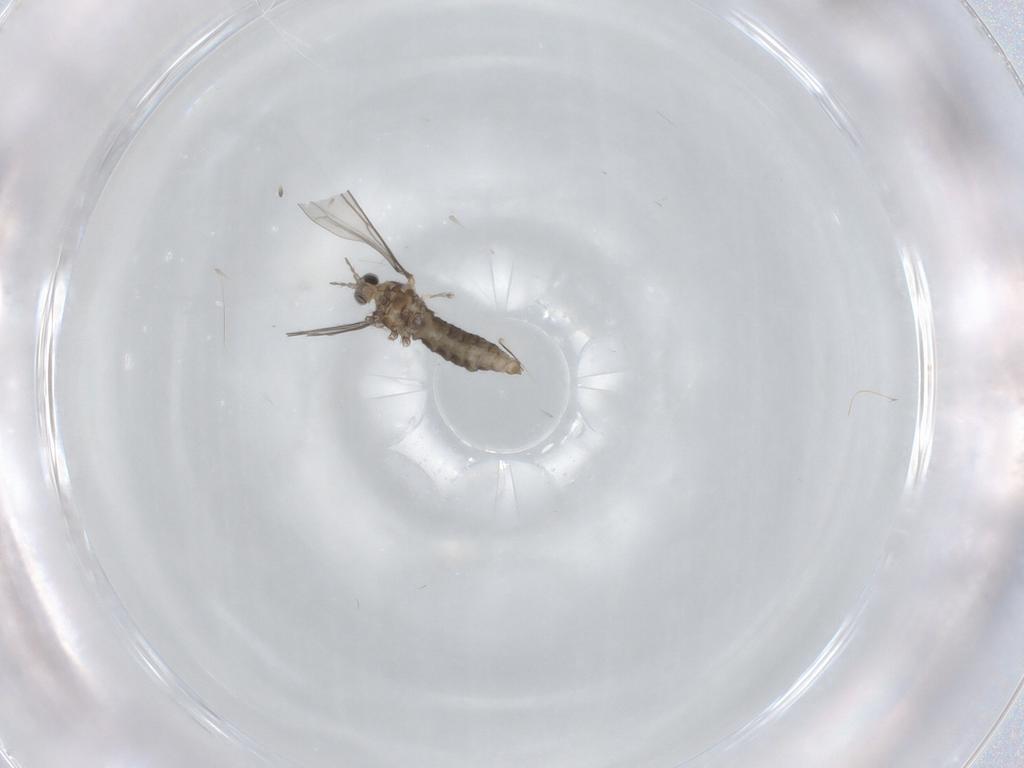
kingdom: Animalia
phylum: Arthropoda
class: Insecta
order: Diptera
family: Cecidomyiidae
